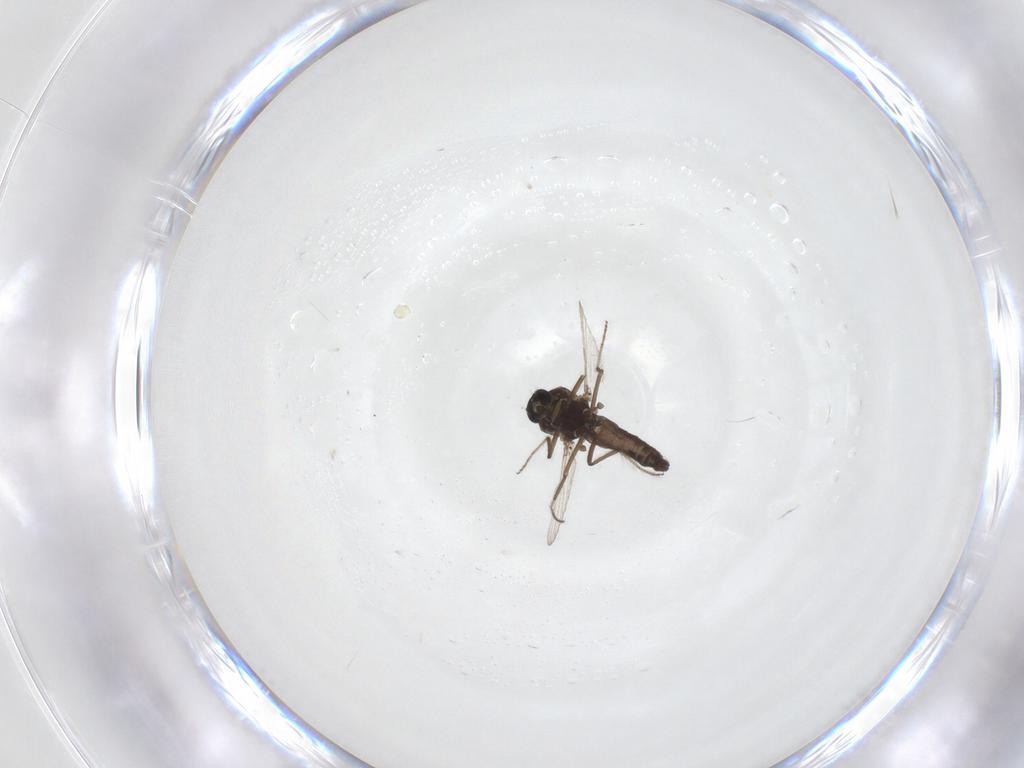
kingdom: Animalia
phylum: Arthropoda
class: Insecta
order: Diptera
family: Ceratopogonidae
